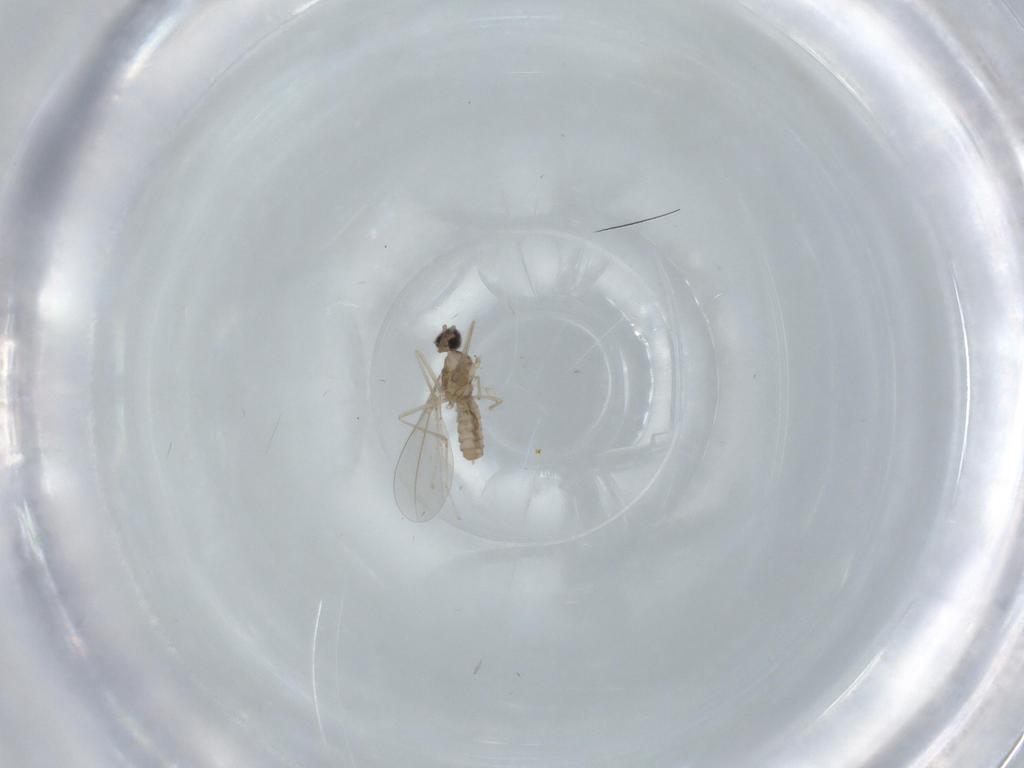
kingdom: Animalia
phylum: Arthropoda
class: Insecta
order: Diptera
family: Cecidomyiidae
